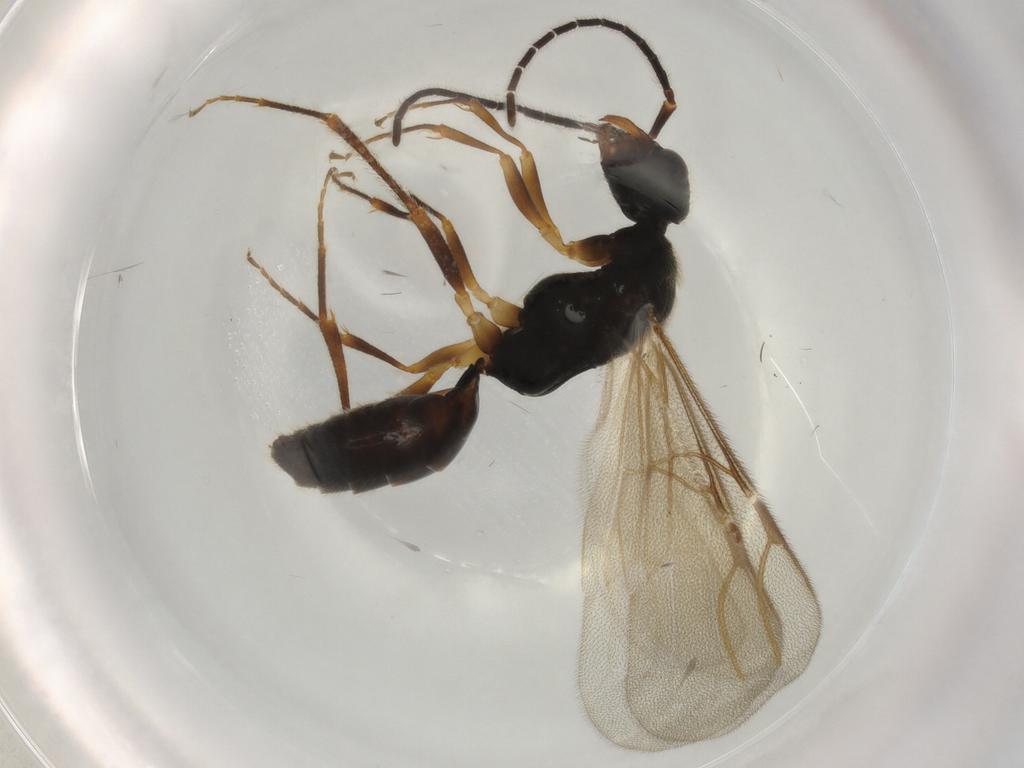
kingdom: Animalia
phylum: Arthropoda
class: Insecta
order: Hymenoptera
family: Bethylidae
